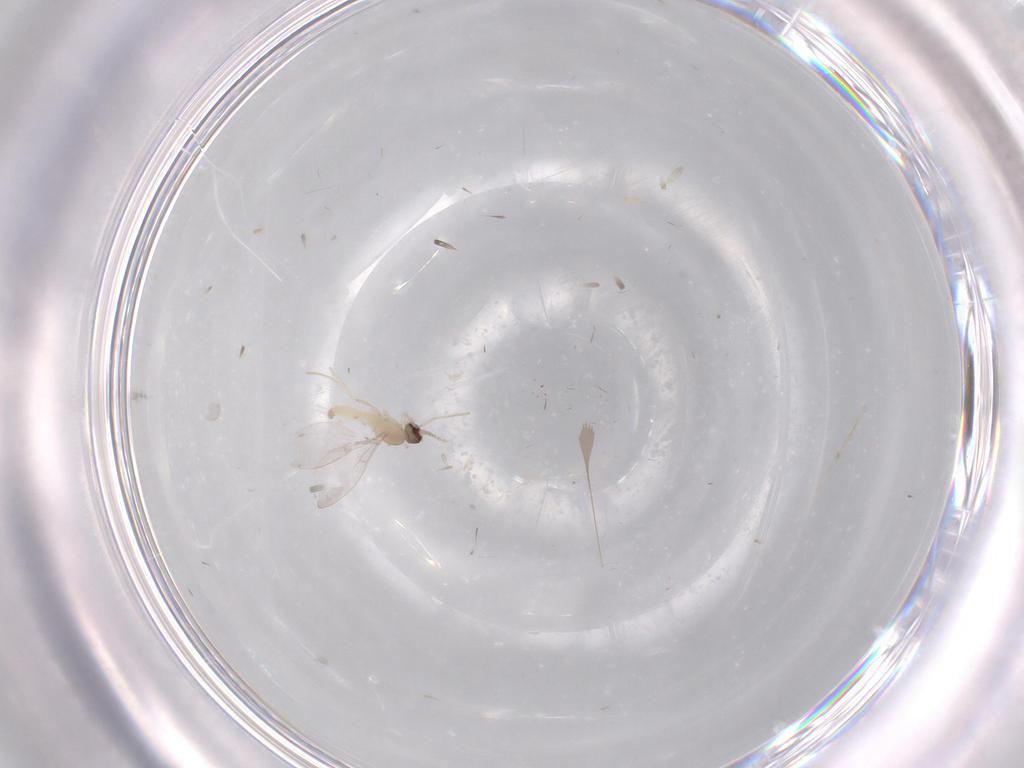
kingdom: Animalia
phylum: Arthropoda
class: Insecta
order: Diptera
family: Cecidomyiidae
